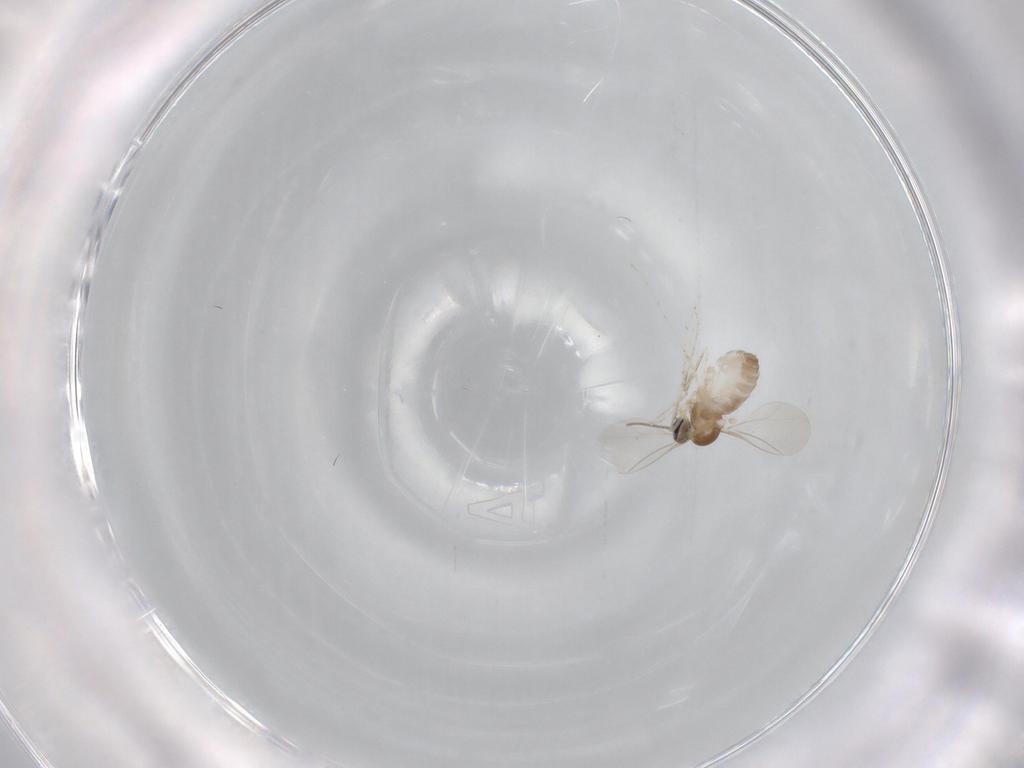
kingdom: Animalia
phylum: Arthropoda
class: Insecta
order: Diptera
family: Cecidomyiidae
